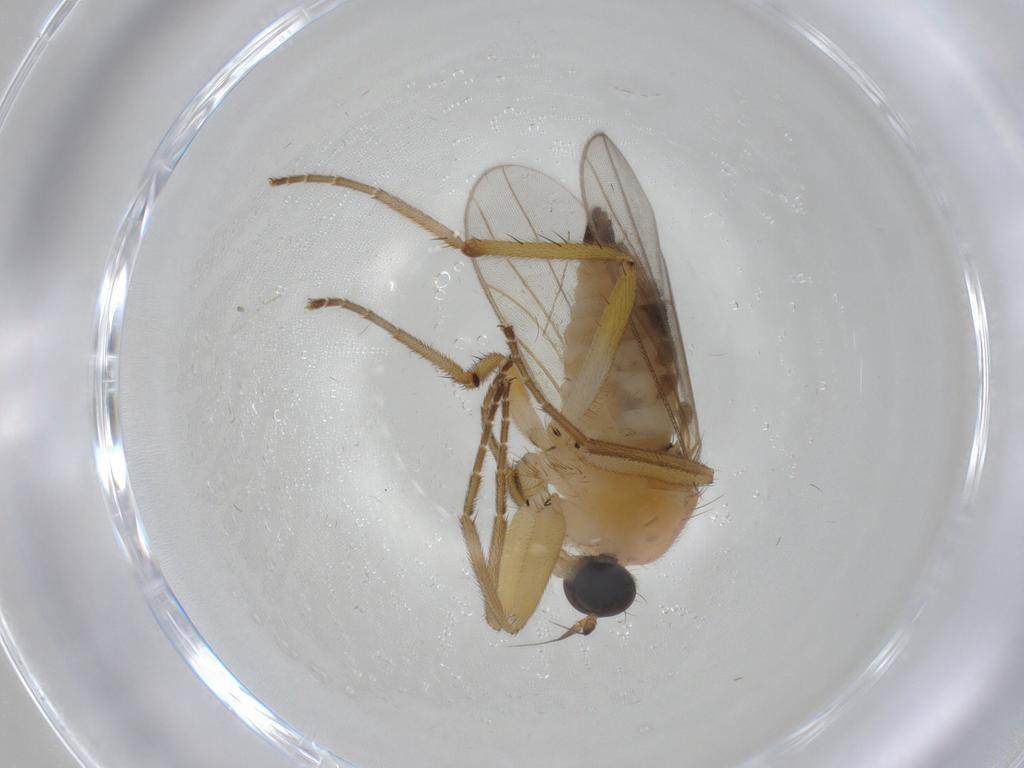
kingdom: Animalia
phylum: Arthropoda
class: Insecta
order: Diptera
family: Hybotidae
